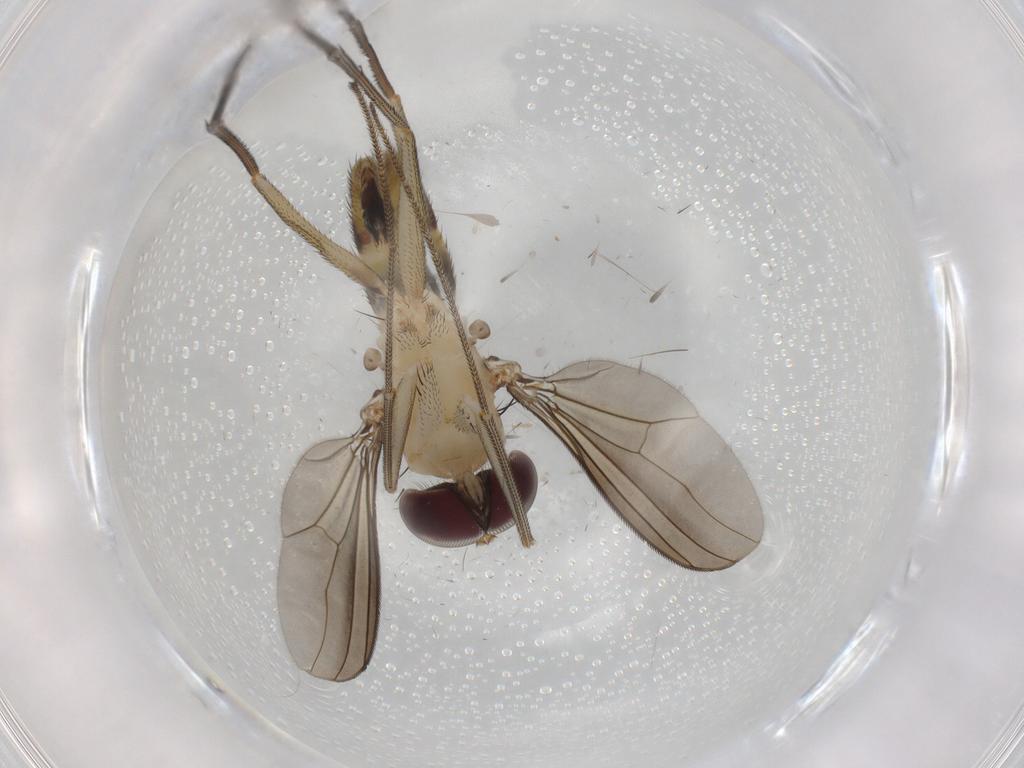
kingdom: Animalia
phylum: Arthropoda
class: Insecta
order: Diptera
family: Dolichopodidae
